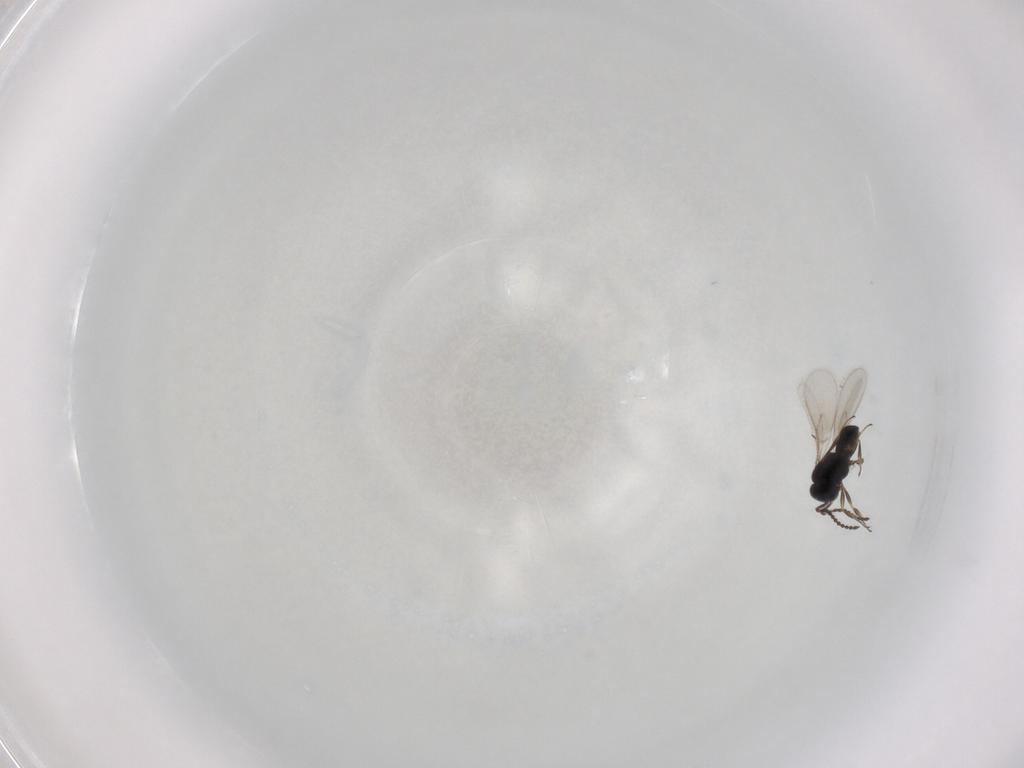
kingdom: Animalia
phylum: Arthropoda
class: Insecta
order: Hymenoptera
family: Scelionidae
